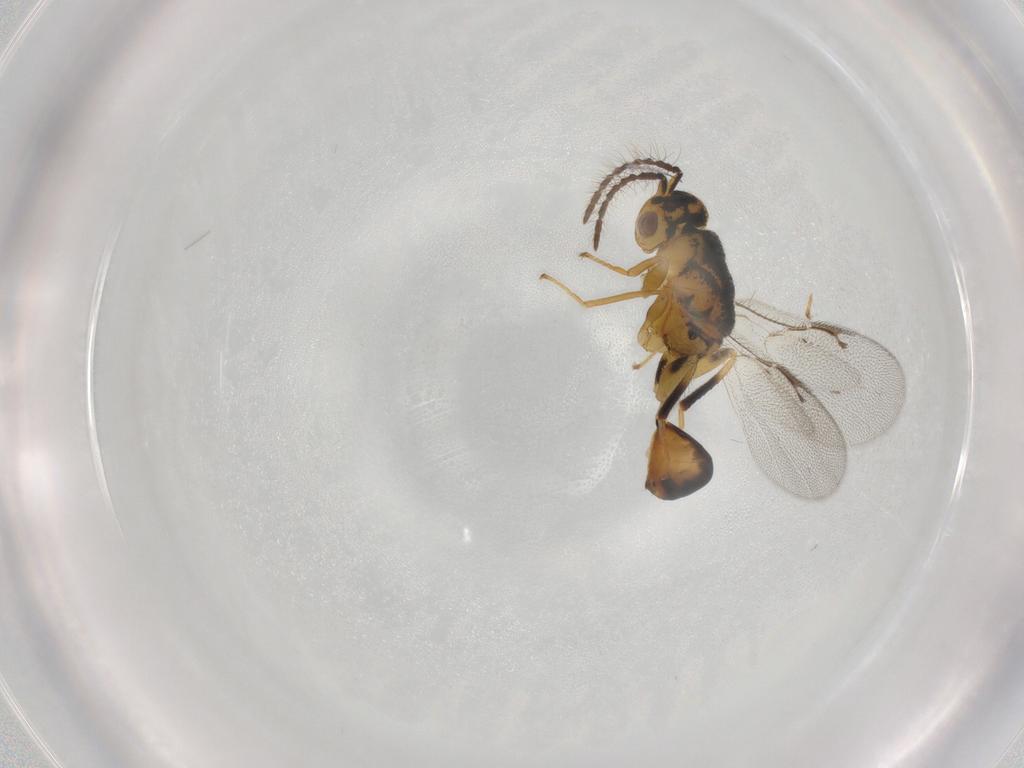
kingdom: Animalia
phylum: Arthropoda
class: Insecta
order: Hymenoptera
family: Eurytomidae
